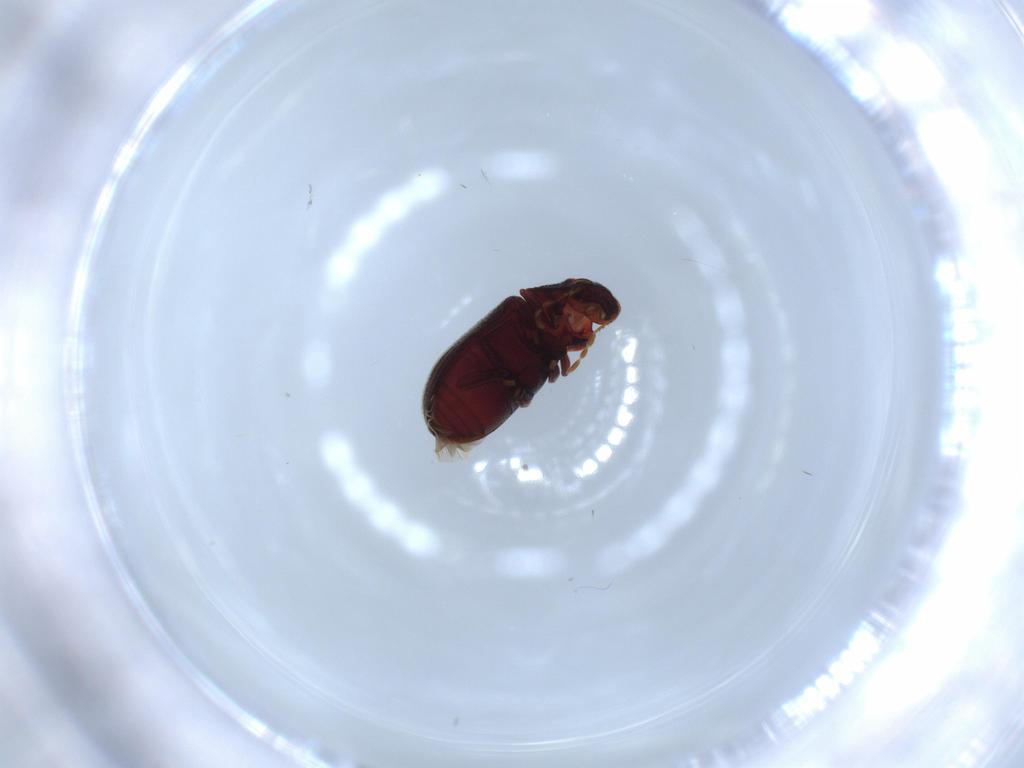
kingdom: Animalia
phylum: Arthropoda
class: Insecta
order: Coleoptera
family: Anobiidae
